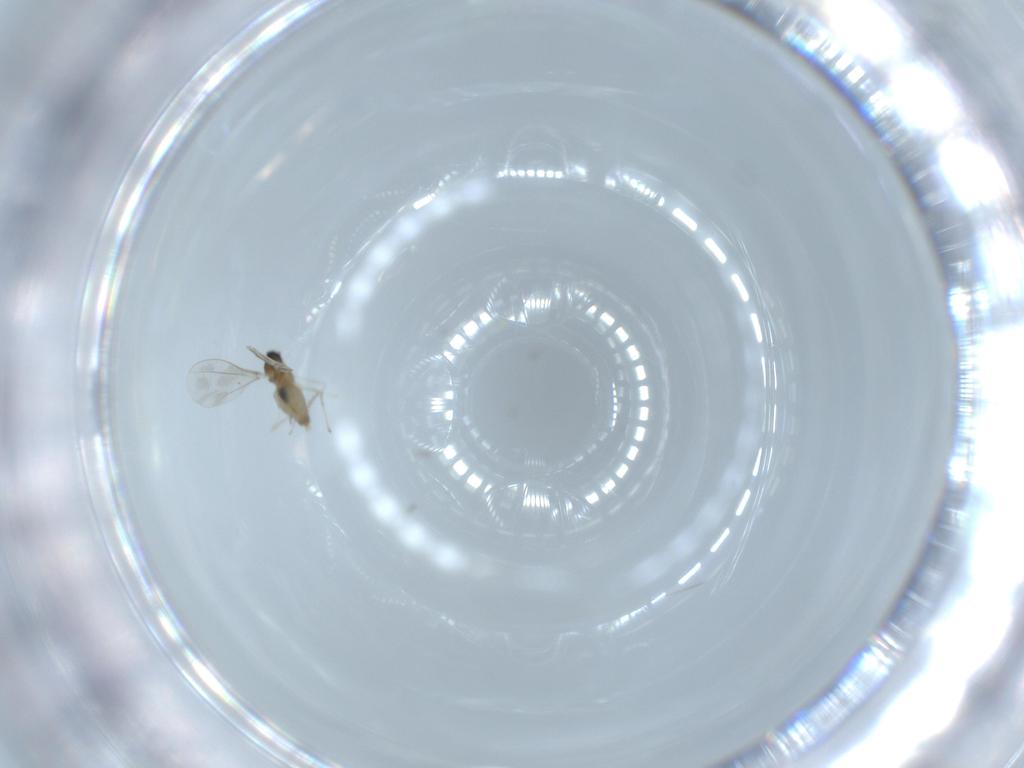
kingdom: Animalia
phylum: Arthropoda
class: Insecta
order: Diptera
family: Cecidomyiidae
